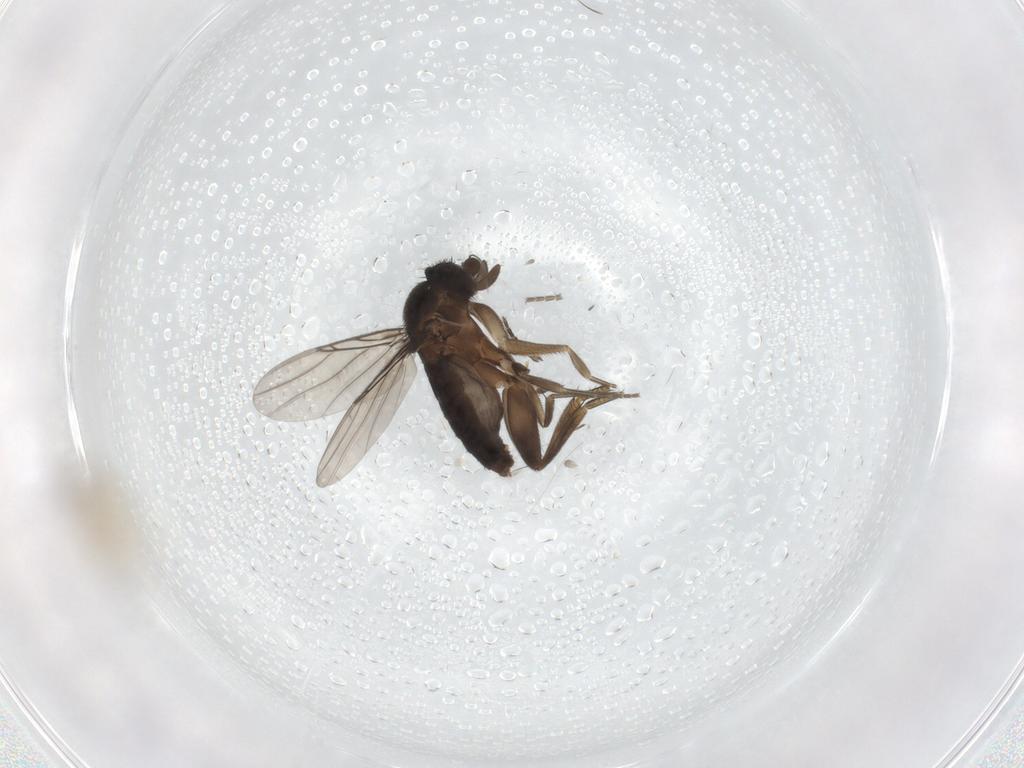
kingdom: Animalia
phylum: Arthropoda
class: Insecta
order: Diptera
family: Phoridae
